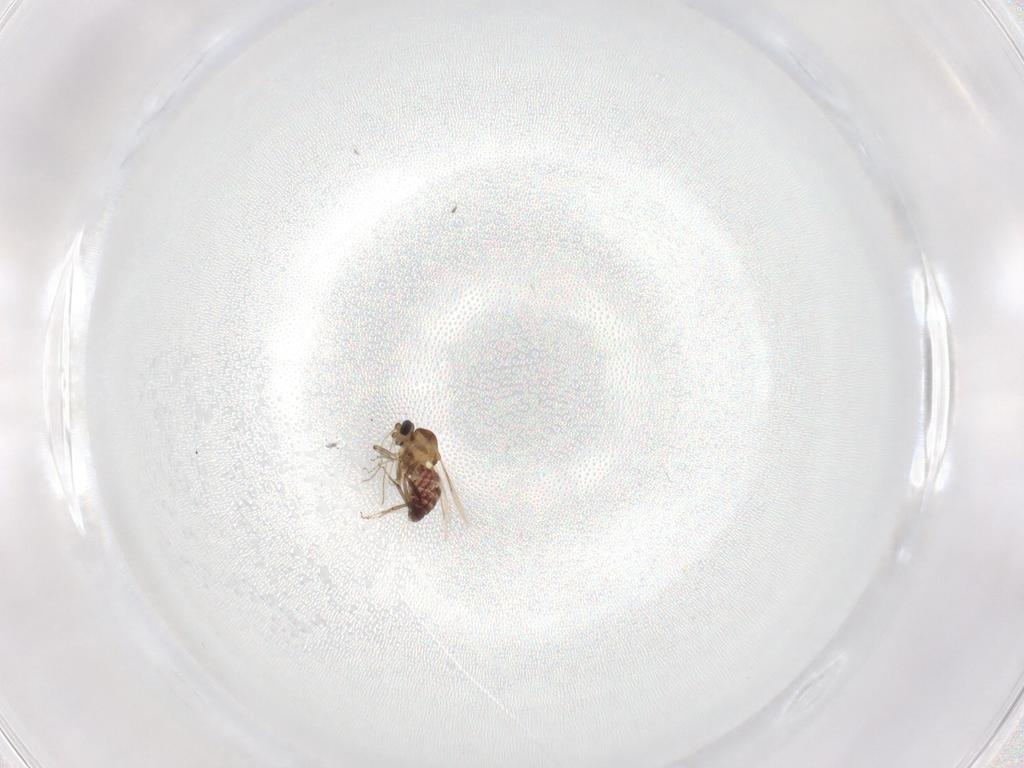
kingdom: Animalia
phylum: Arthropoda
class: Insecta
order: Diptera
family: Ceratopogonidae
